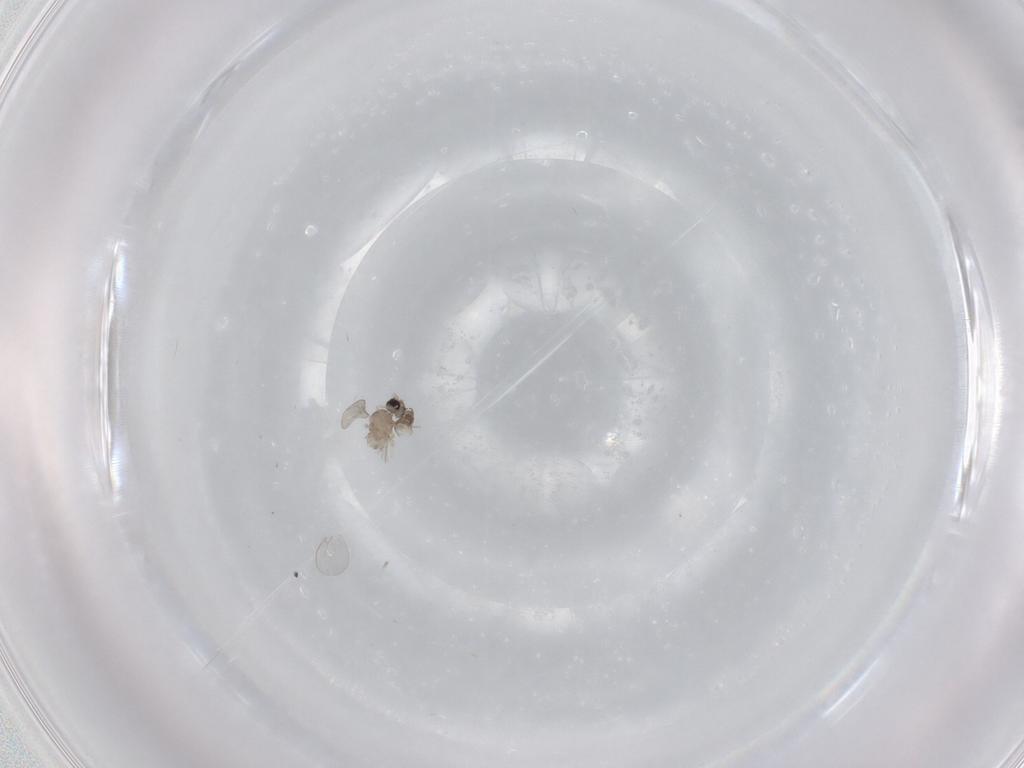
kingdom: Animalia
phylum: Arthropoda
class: Insecta
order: Diptera
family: Cecidomyiidae
